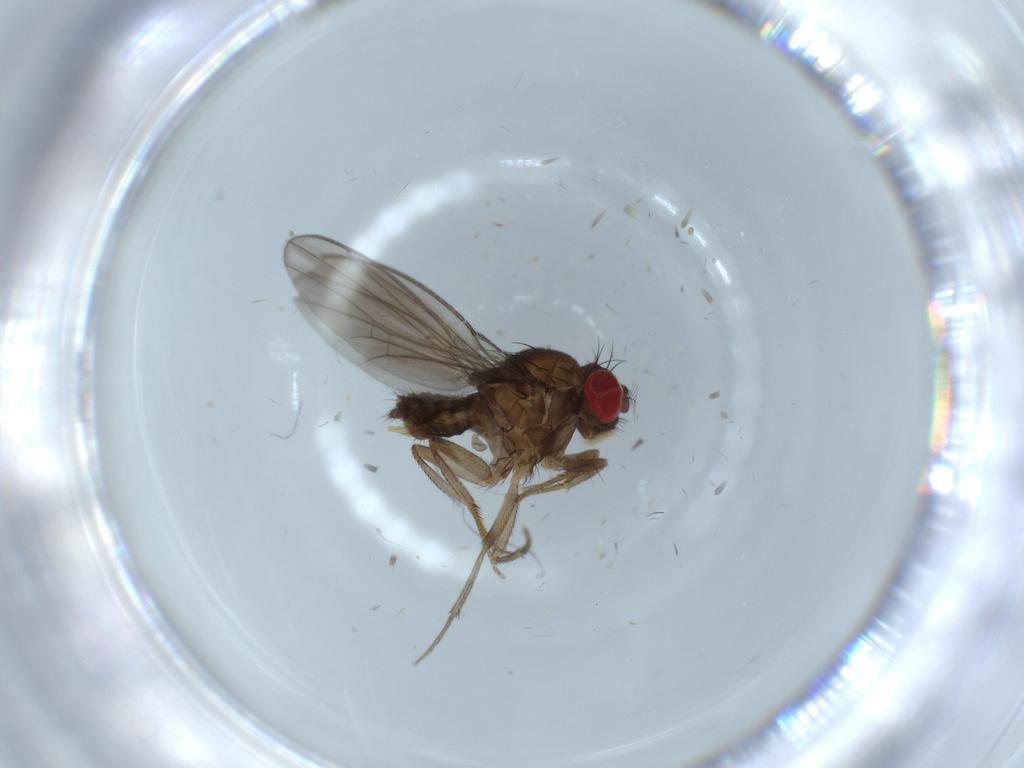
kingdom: Animalia
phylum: Arthropoda
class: Insecta
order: Diptera
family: Drosophilidae
